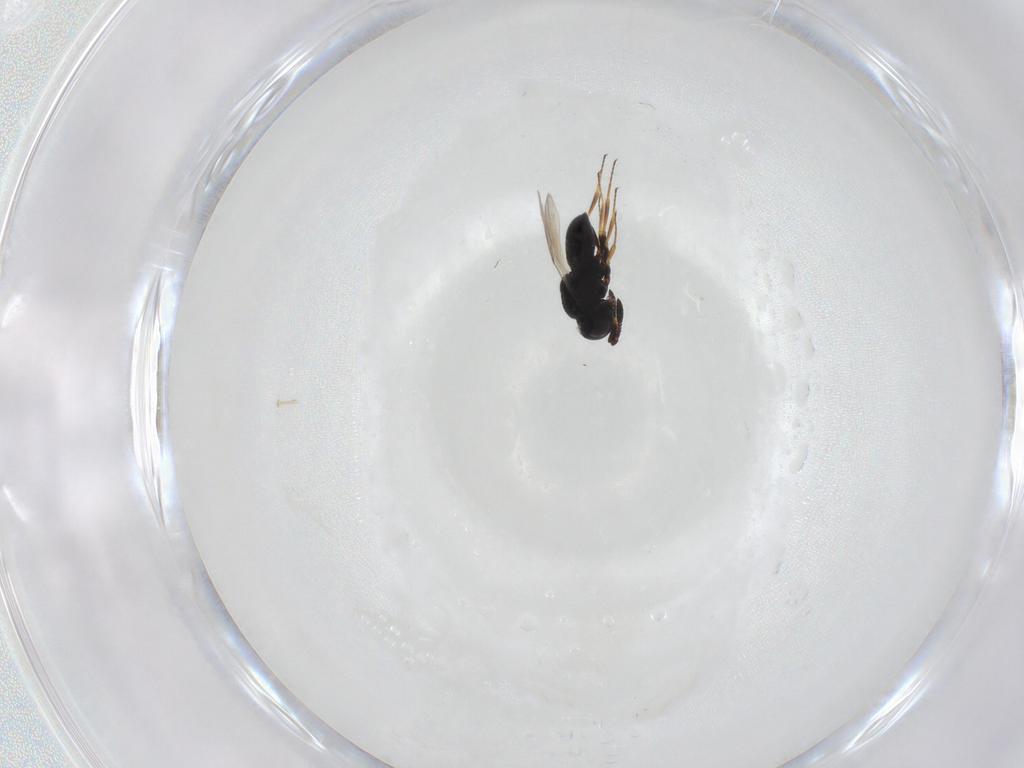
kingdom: Animalia
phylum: Arthropoda
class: Insecta
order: Hymenoptera
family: Scelionidae
